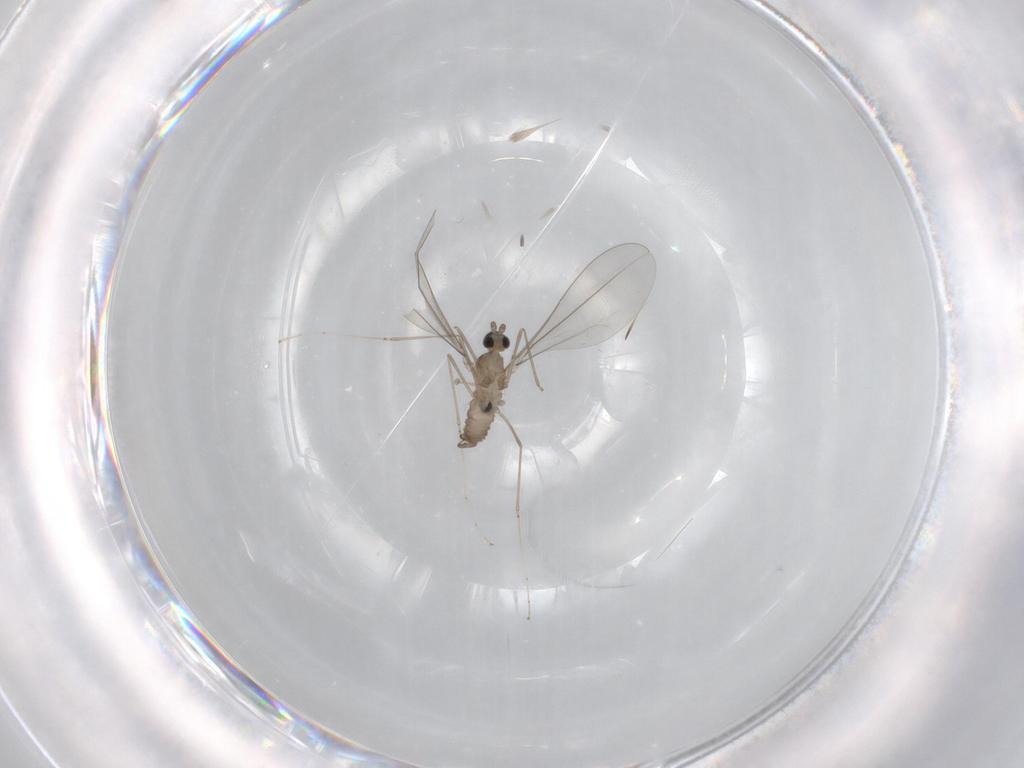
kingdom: Animalia
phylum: Arthropoda
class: Insecta
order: Diptera
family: Cecidomyiidae
